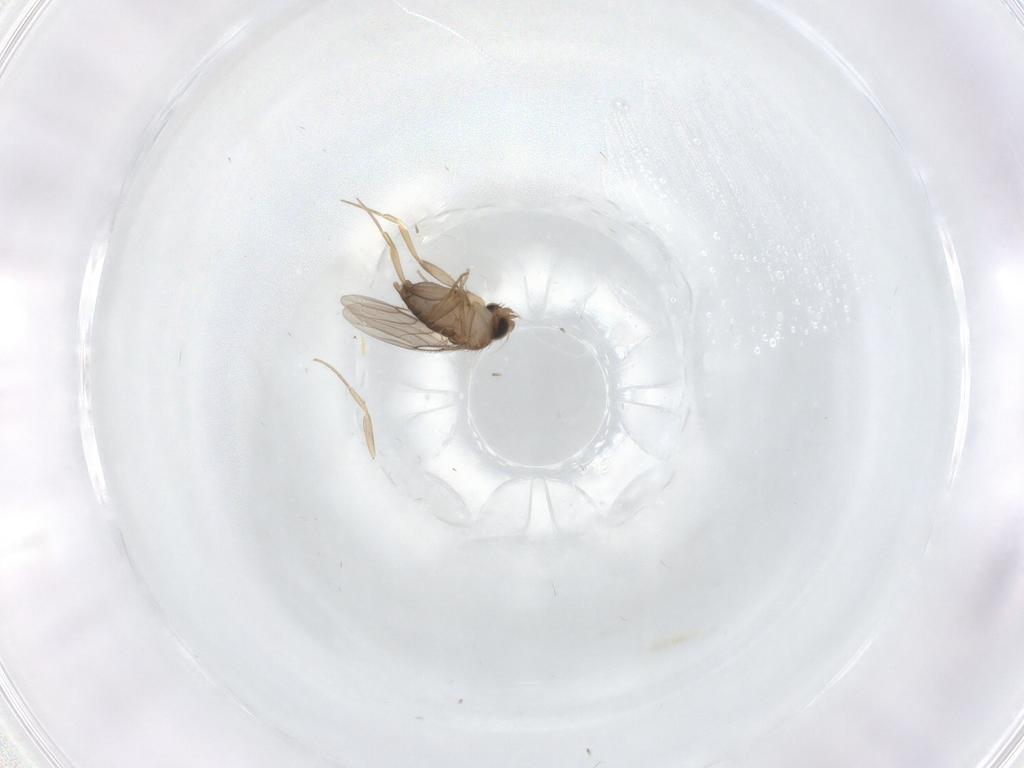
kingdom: Animalia
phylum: Arthropoda
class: Insecta
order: Diptera
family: Phoridae
